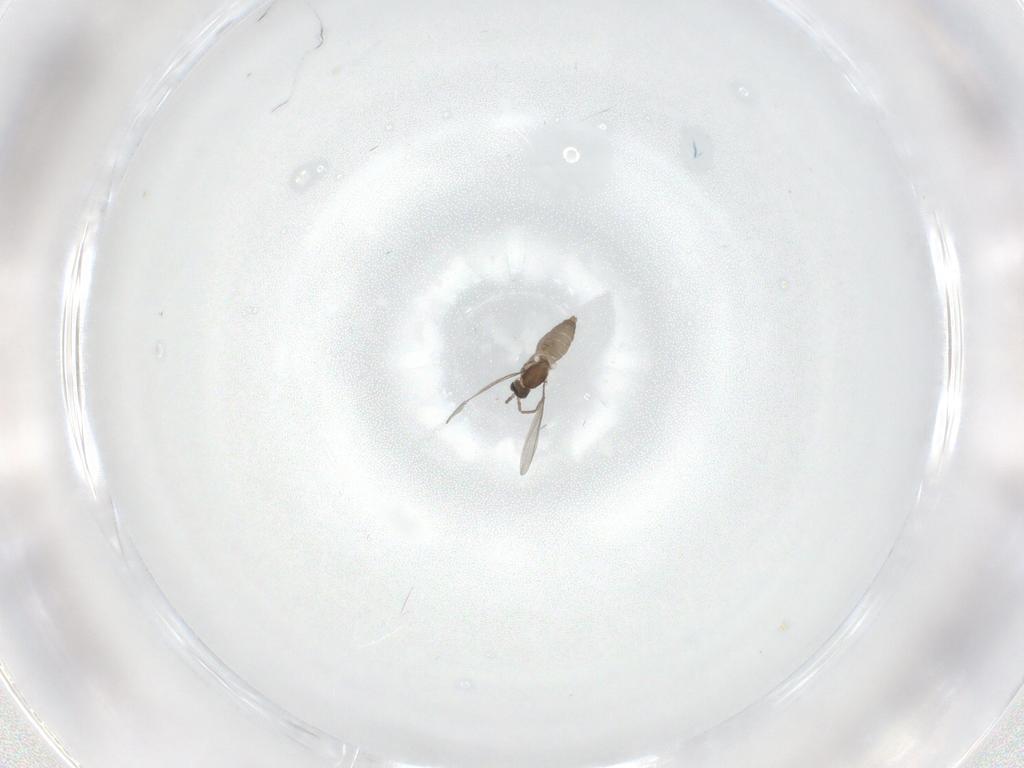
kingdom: Animalia
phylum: Arthropoda
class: Insecta
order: Diptera
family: Cecidomyiidae
